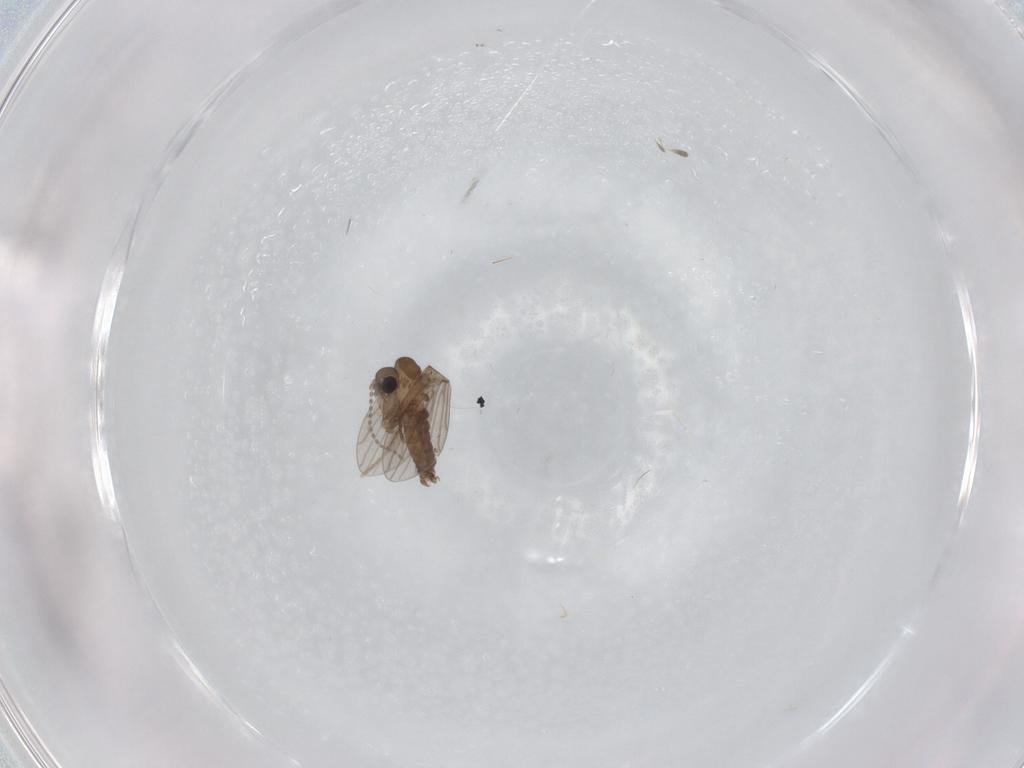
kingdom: Animalia
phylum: Arthropoda
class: Insecta
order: Diptera
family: Cecidomyiidae
